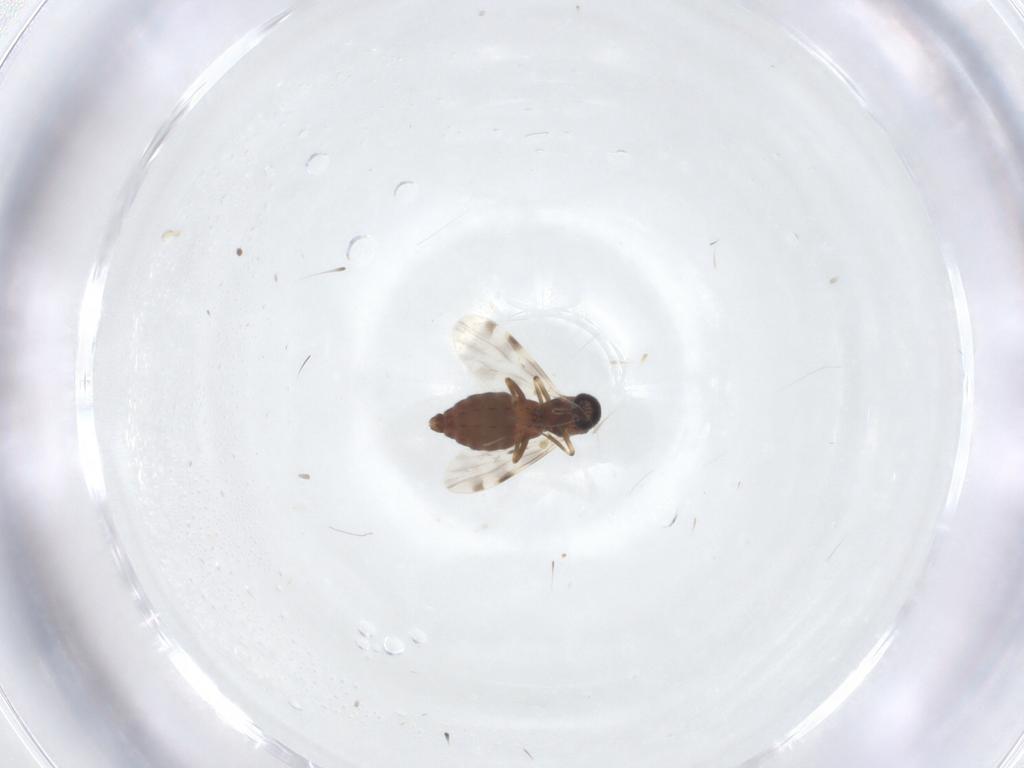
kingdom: Animalia
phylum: Arthropoda
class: Insecta
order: Diptera
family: Ceratopogonidae
